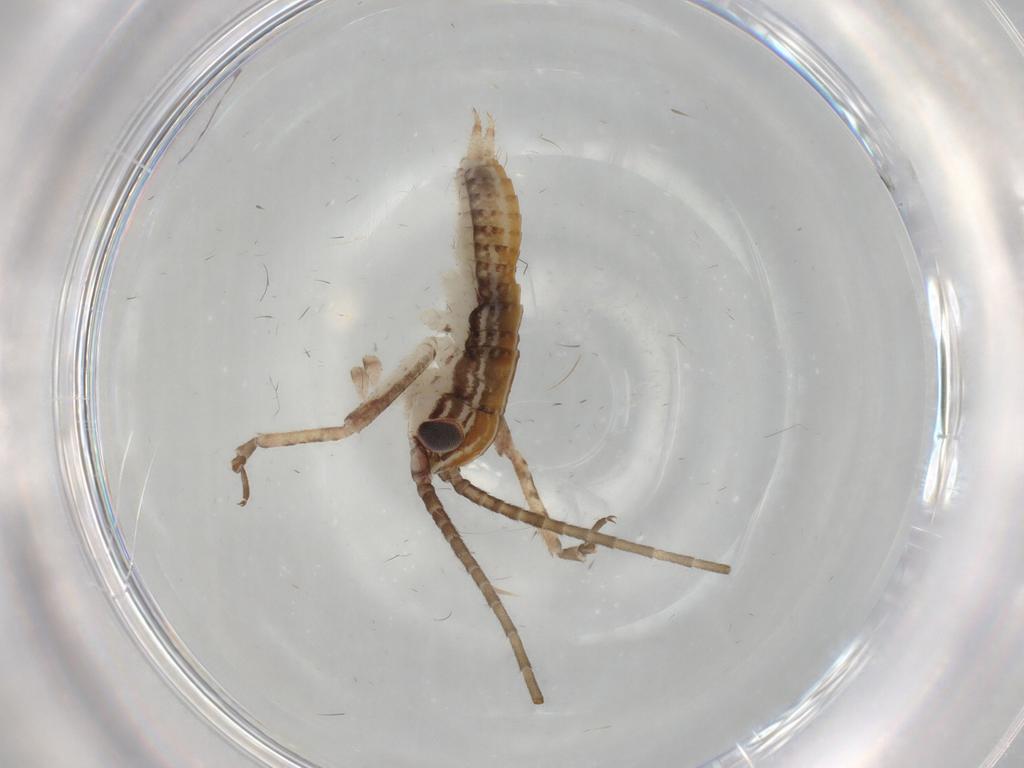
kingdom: Animalia
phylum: Arthropoda
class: Insecta
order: Orthoptera
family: Gryllidae
